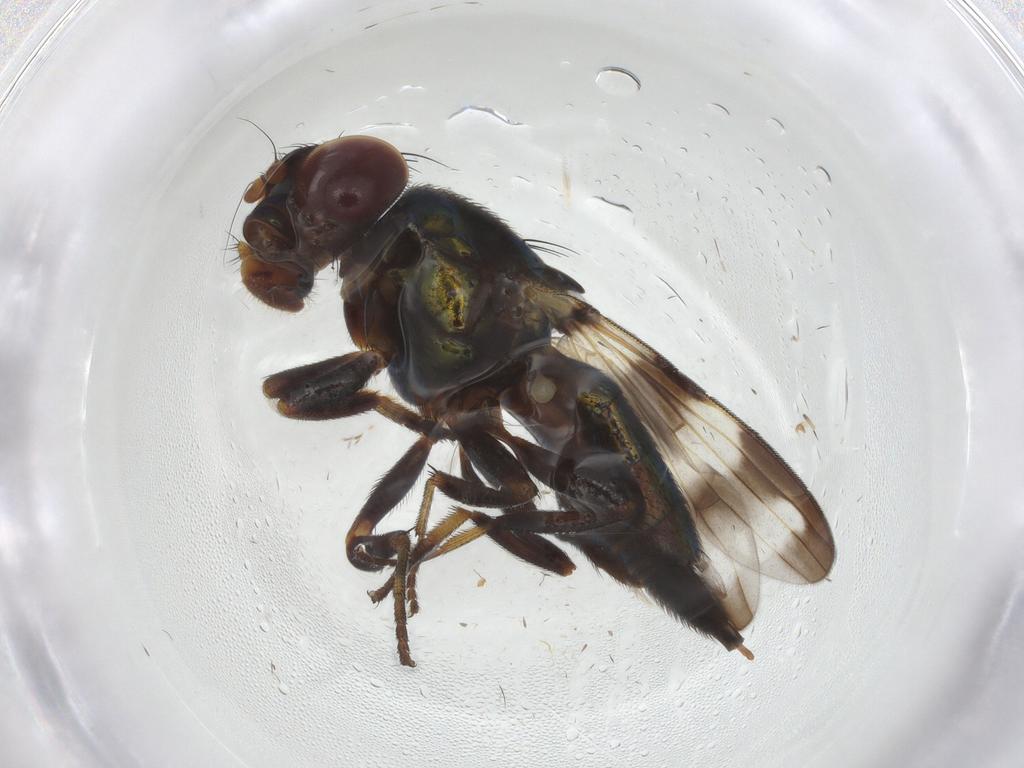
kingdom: Animalia
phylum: Arthropoda
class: Insecta
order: Diptera
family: Ulidiidae
